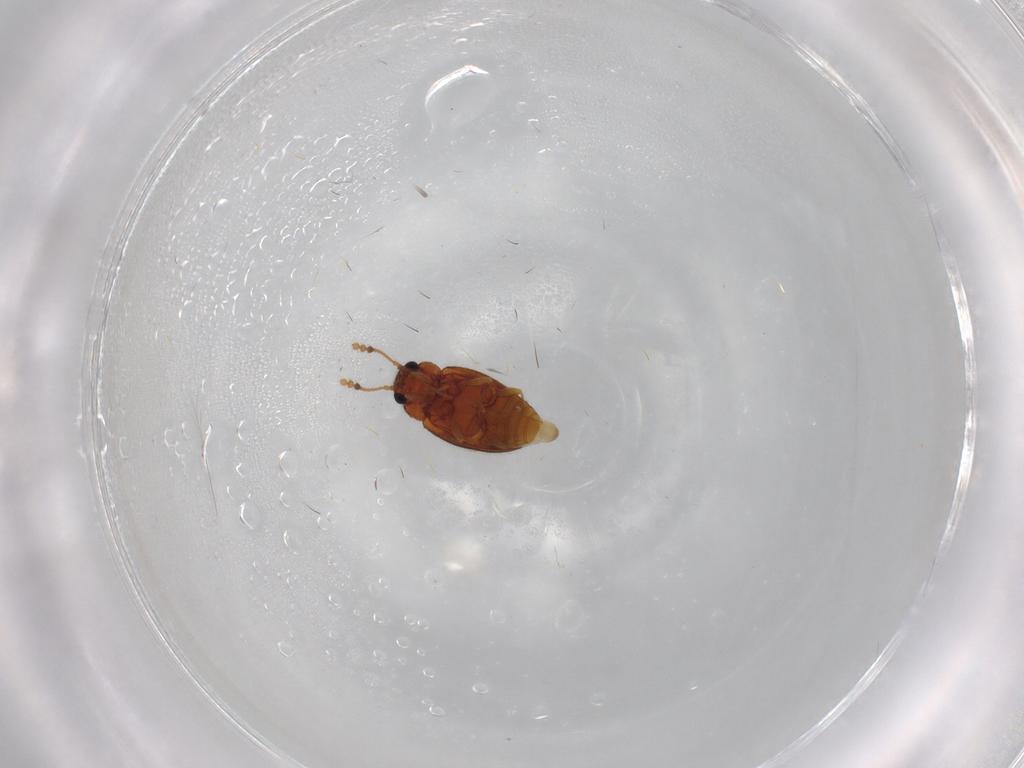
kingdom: Animalia
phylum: Arthropoda
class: Insecta
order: Coleoptera
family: Erotylidae
